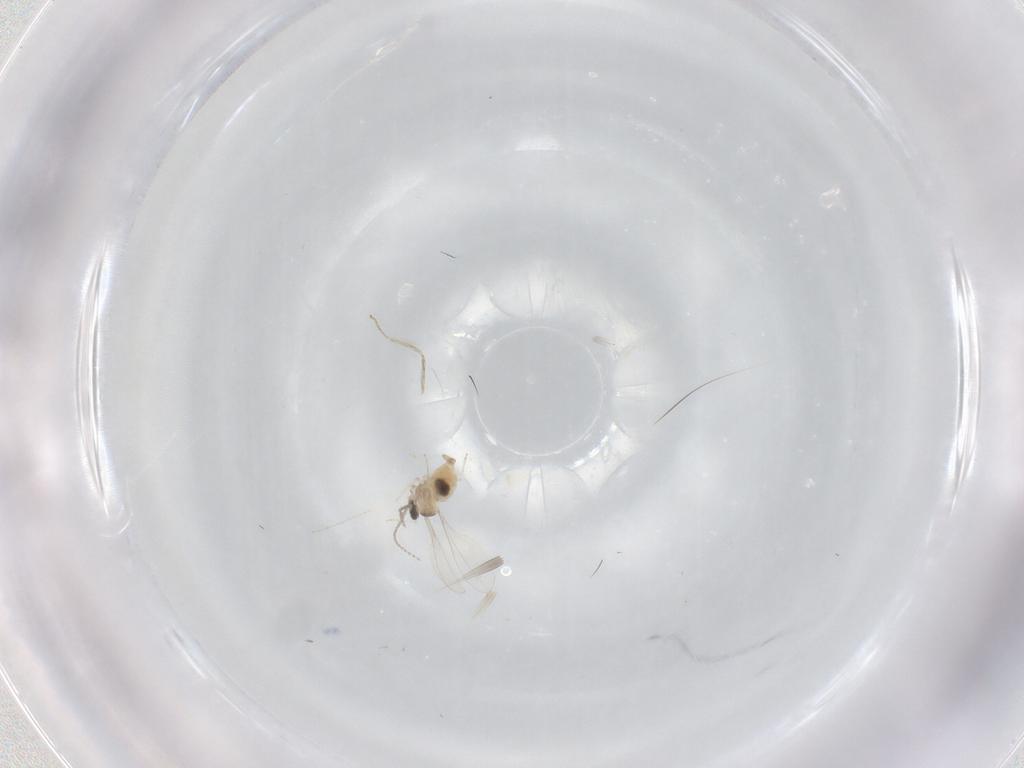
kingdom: Animalia
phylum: Arthropoda
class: Insecta
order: Diptera
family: Cecidomyiidae
